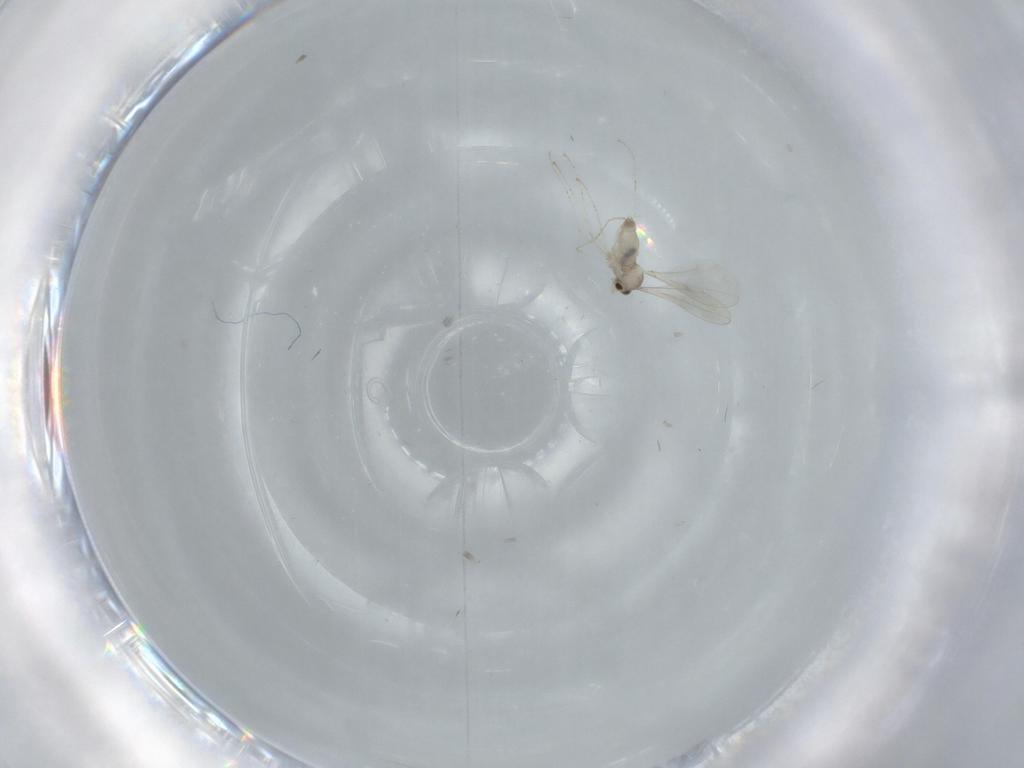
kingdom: Animalia
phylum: Arthropoda
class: Insecta
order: Diptera
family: Cecidomyiidae
